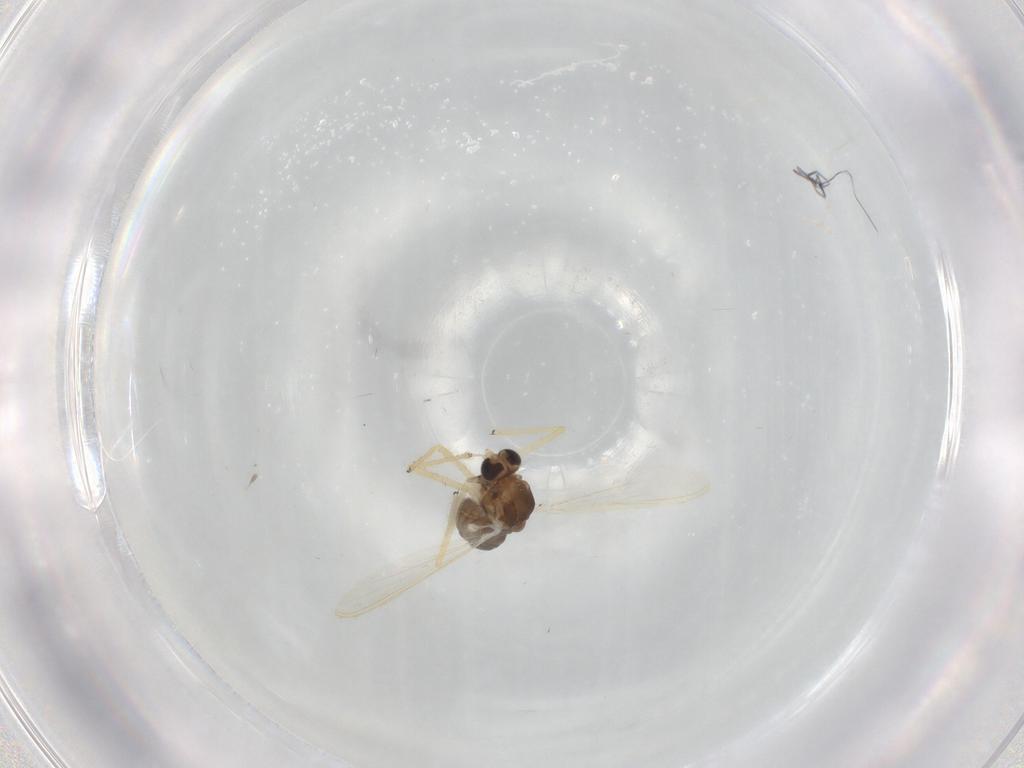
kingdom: Animalia
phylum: Arthropoda
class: Insecta
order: Diptera
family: Chironomidae
